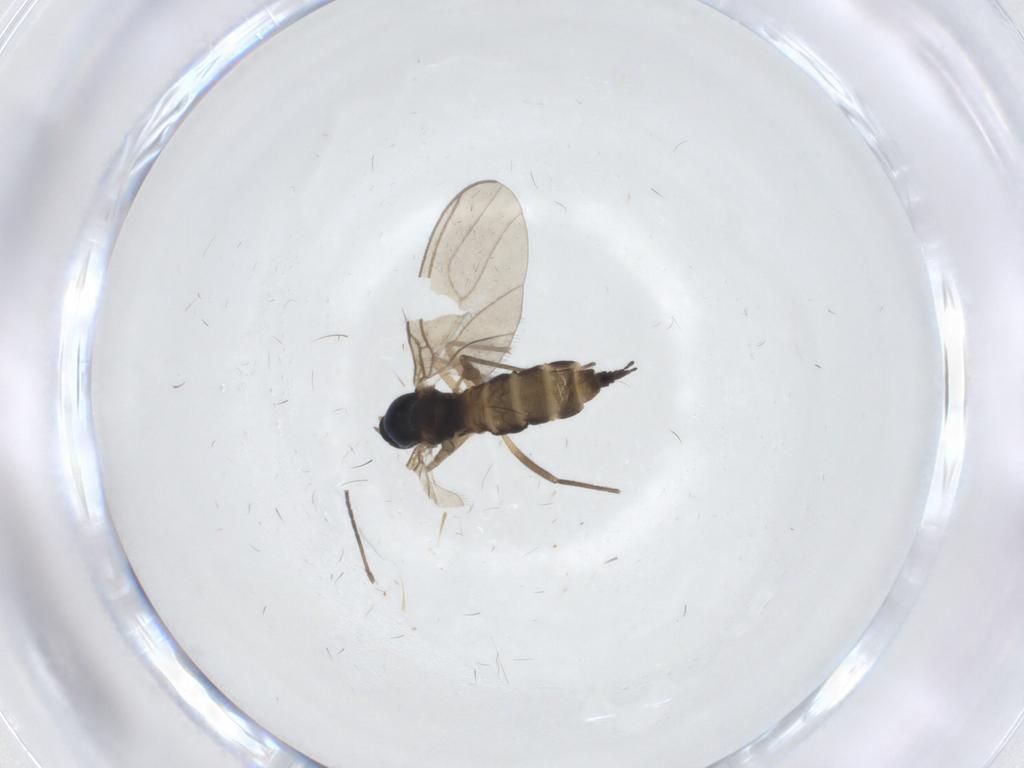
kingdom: Animalia
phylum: Arthropoda
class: Insecta
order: Diptera
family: Sciaridae
